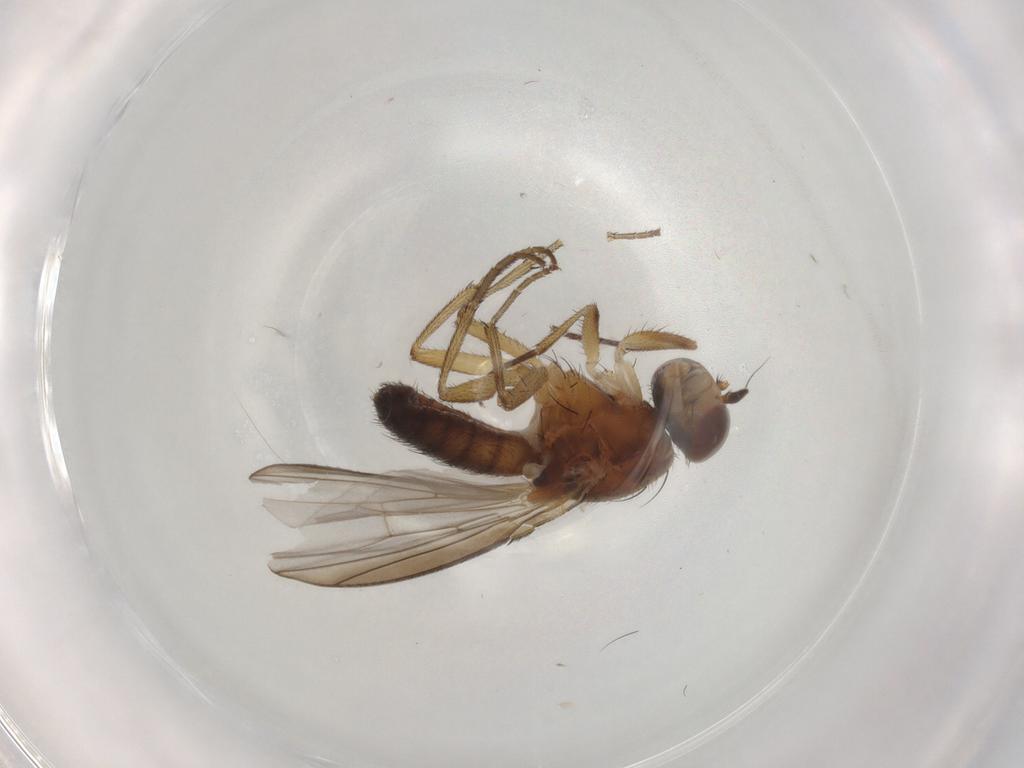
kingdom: Animalia
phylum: Arthropoda
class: Insecta
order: Diptera
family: Heleomyzidae
